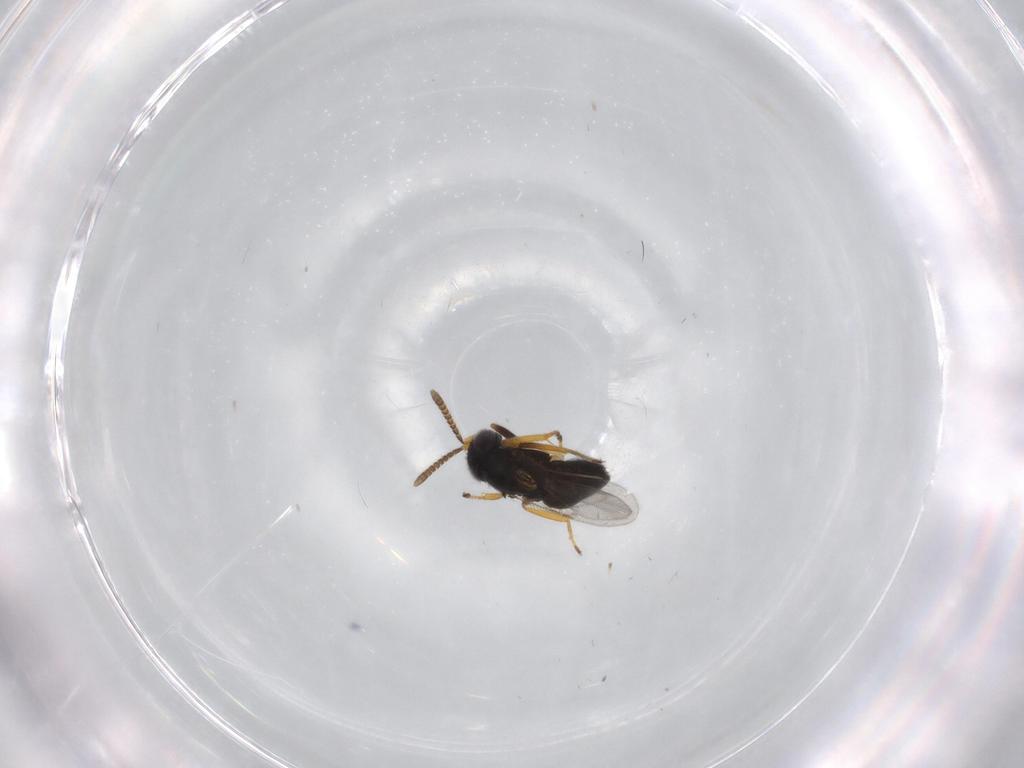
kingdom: Animalia
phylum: Arthropoda
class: Insecta
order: Hymenoptera
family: Encyrtidae
